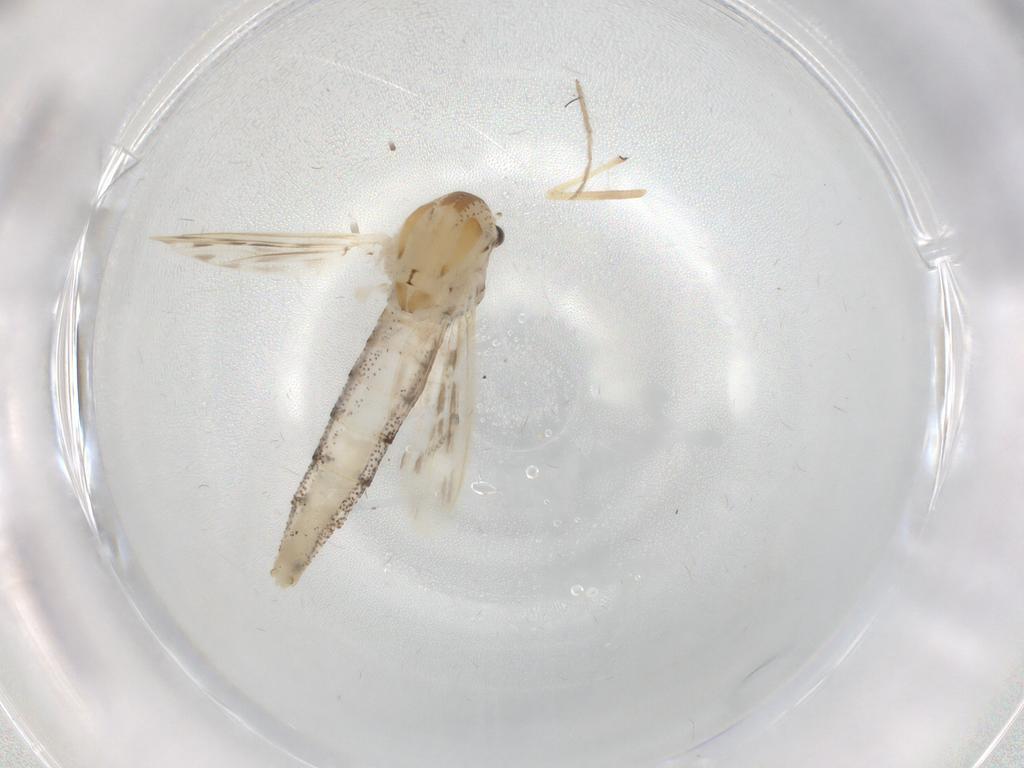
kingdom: Animalia
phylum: Arthropoda
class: Insecta
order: Diptera
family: Chaoboridae
